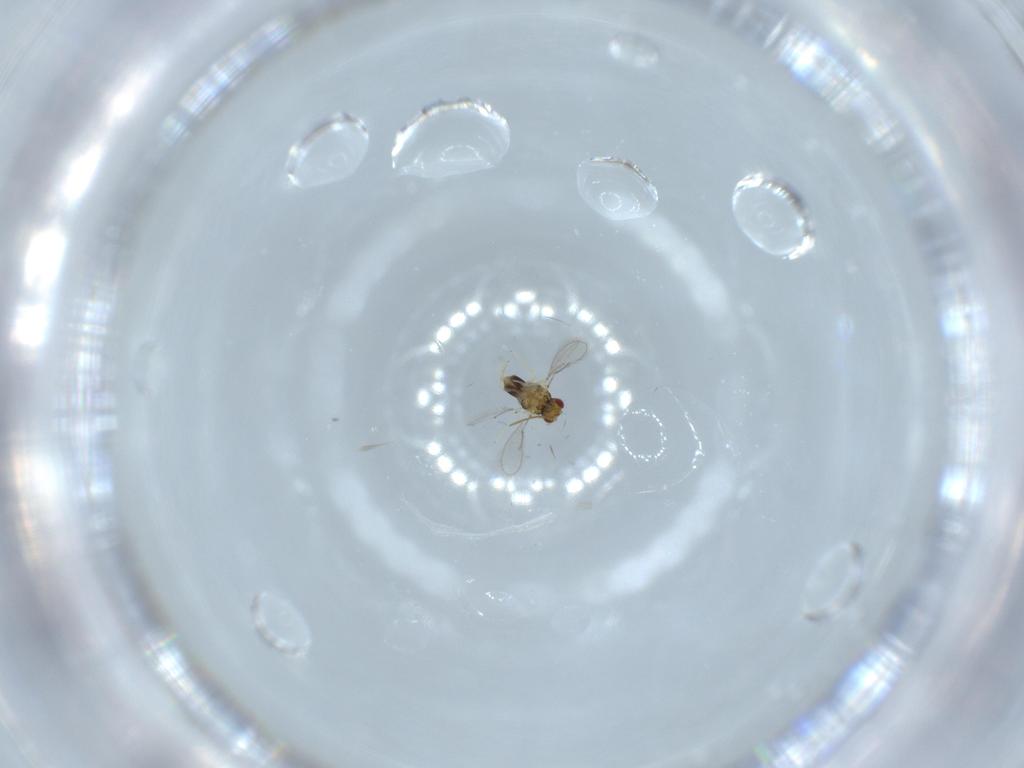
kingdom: Animalia
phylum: Arthropoda
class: Insecta
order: Hymenoptera
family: Aphelinidae
